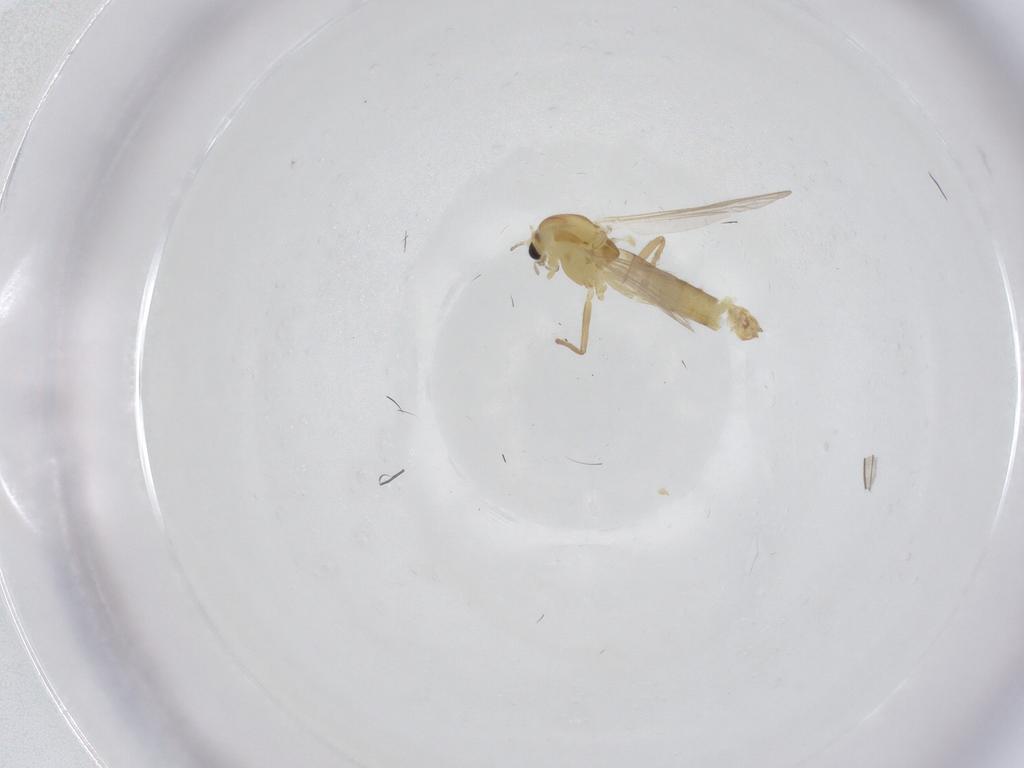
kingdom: Animalia
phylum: Arthropoda
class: Insecta
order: Diptera
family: Chironomidae
